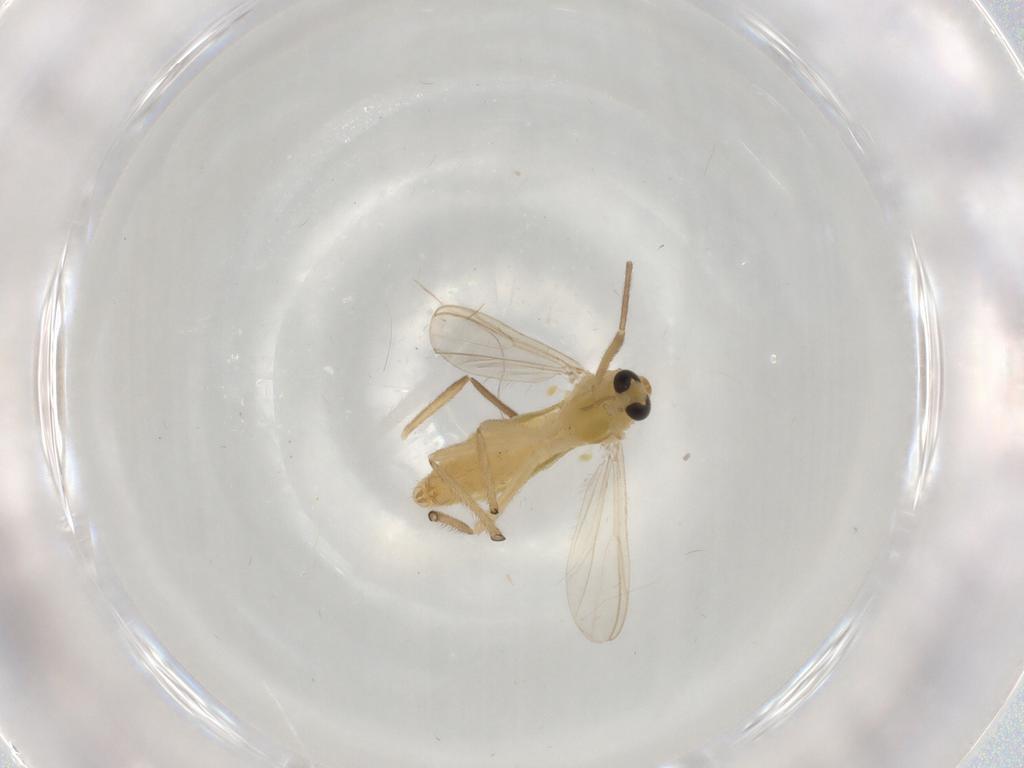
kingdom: Animalia
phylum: Arthropoda
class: Insecta
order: Diptera
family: Chironomidae
